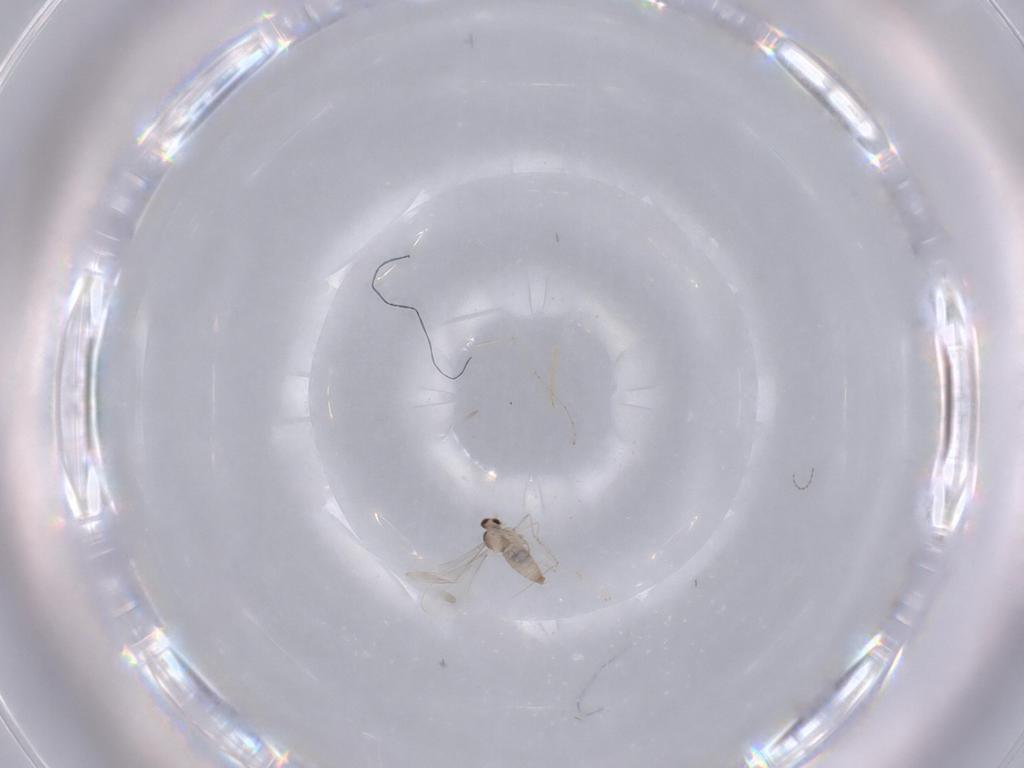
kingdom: Animalia
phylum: Arthropoda
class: Insecta
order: Diptera
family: Cecidomyiidae
